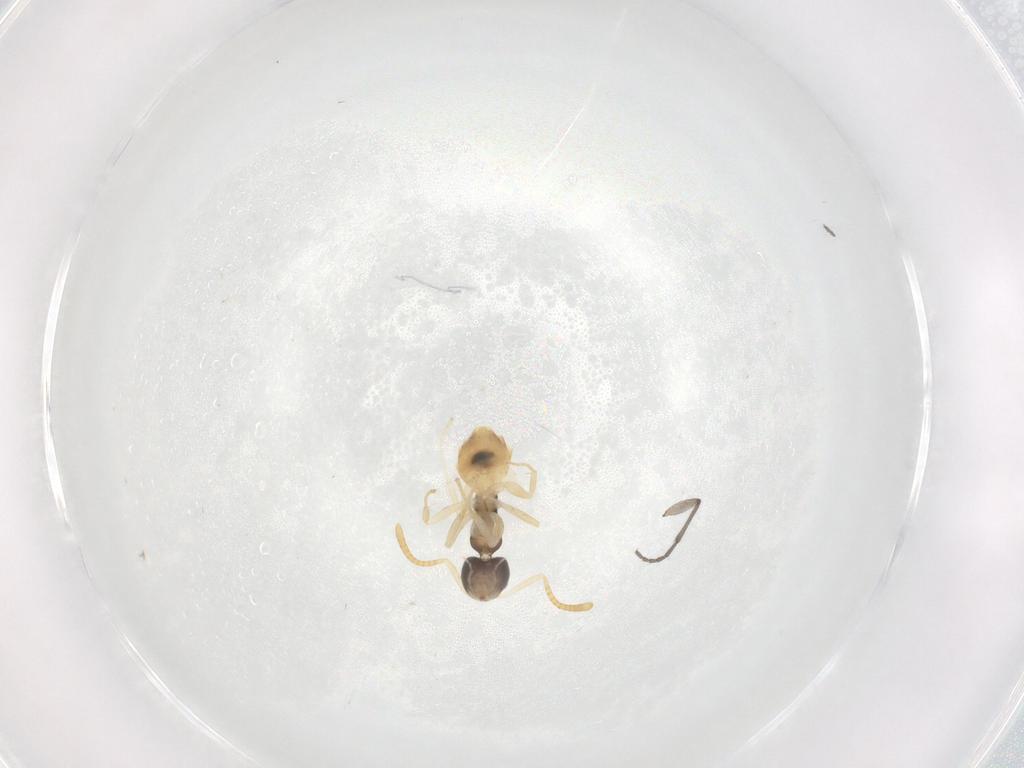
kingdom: Animalia
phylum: Arthropoda
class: Insecta
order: Hymenoptera
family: Formicidae
